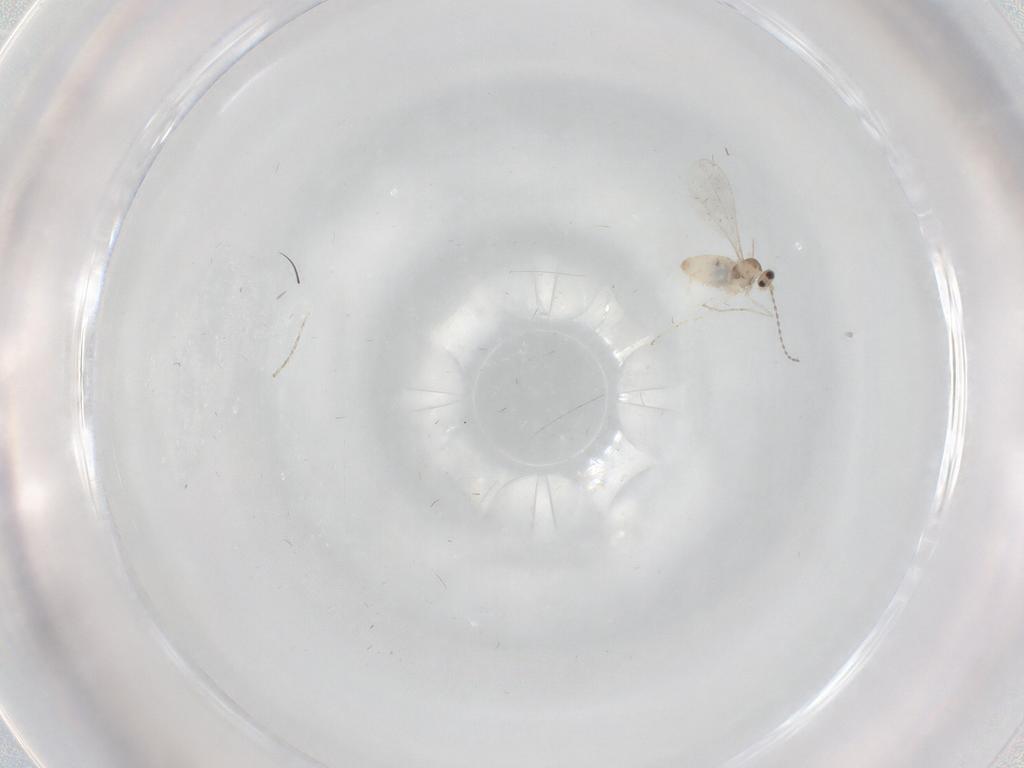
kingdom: Animalia
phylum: Arthropoda
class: Insecta
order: Diptera
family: Cecidomyiidae
